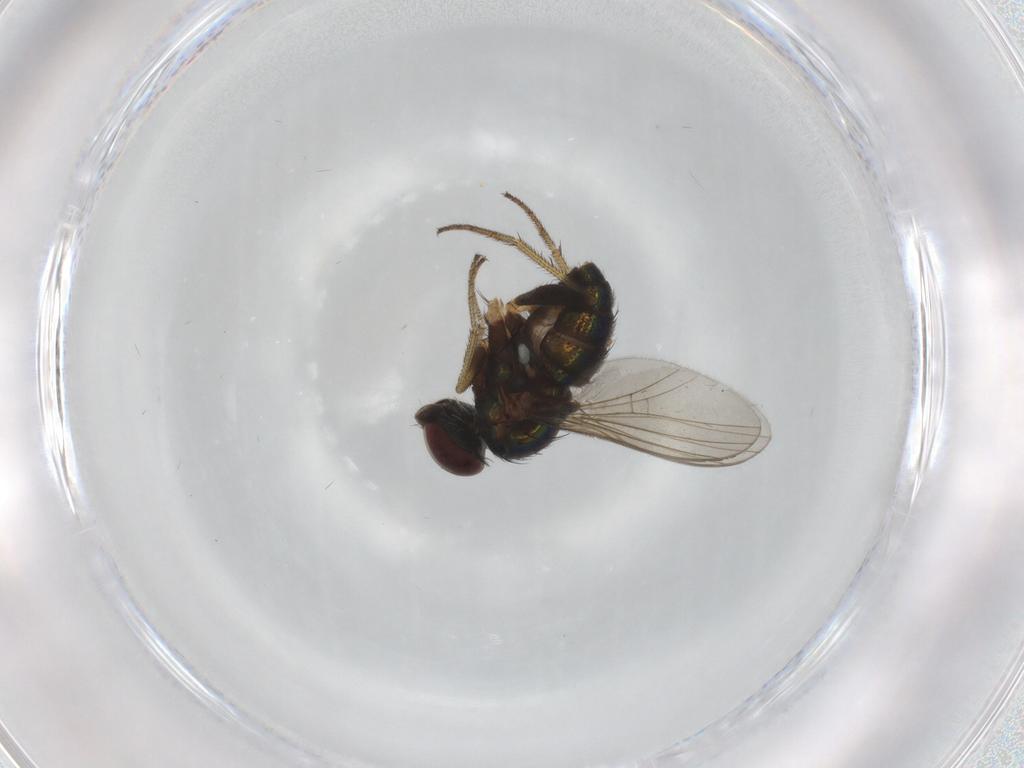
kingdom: Animalia
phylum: Arthropoda
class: Insecta
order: Diptera
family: Dolichopodidae
